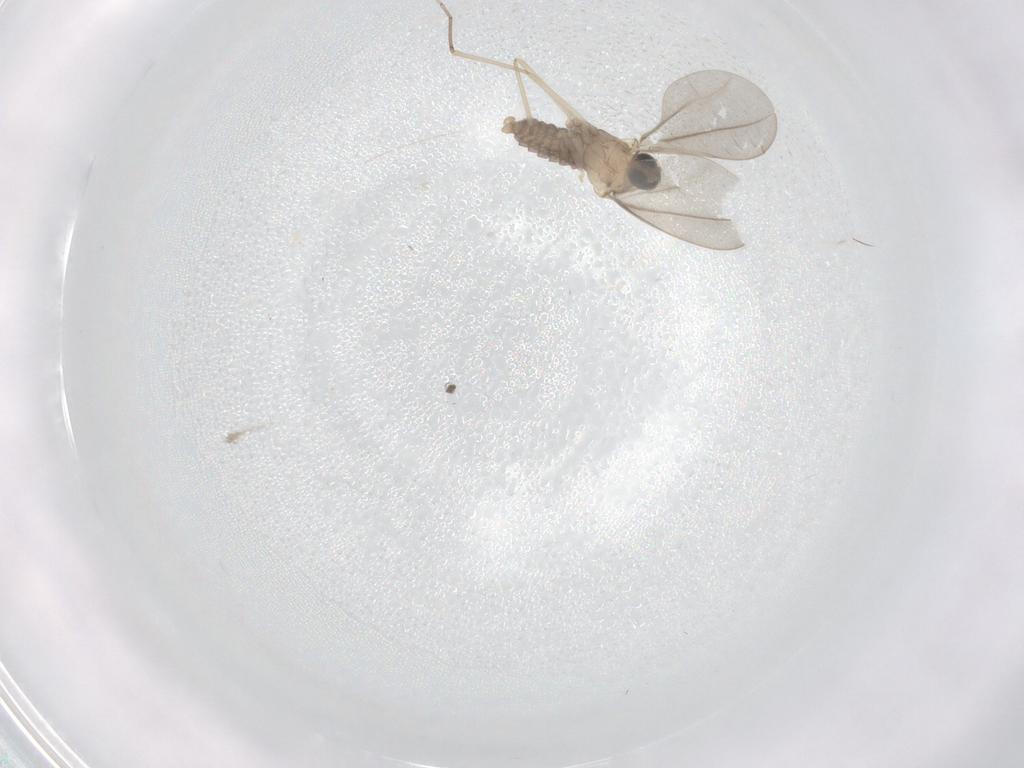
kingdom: Animalia
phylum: Arthropoda
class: Insecta
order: Diptera
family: Cecidomyiidae
